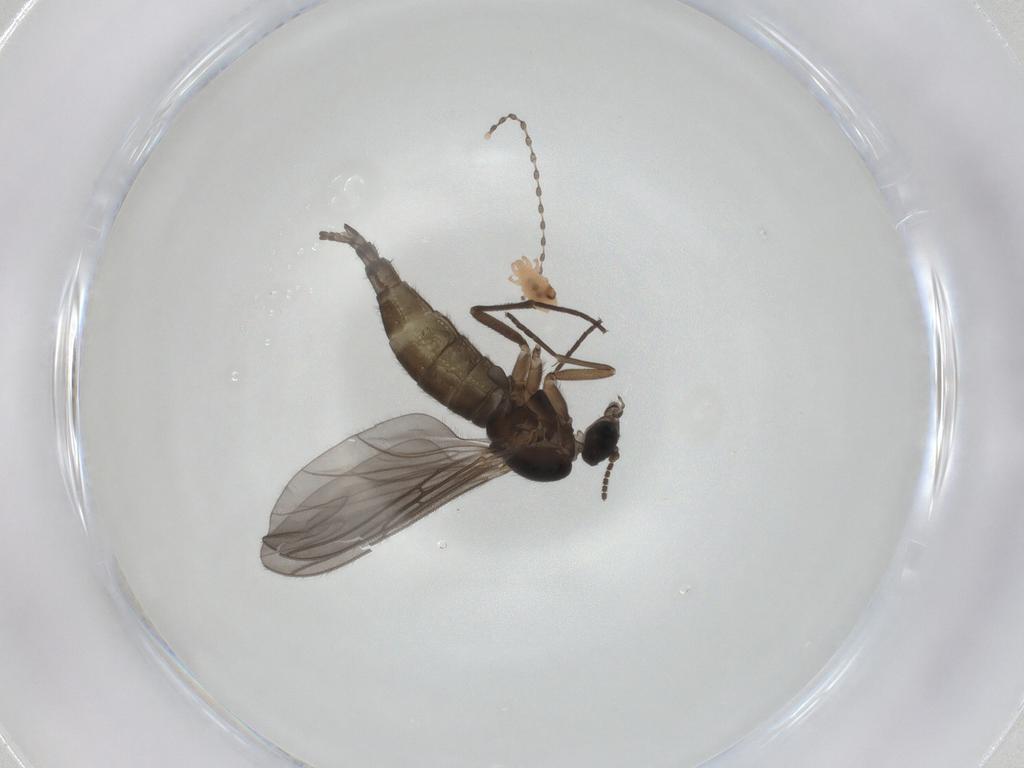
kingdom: Animalia
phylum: Arthropoda
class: Insecta
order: Diptera
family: Sciaridae
